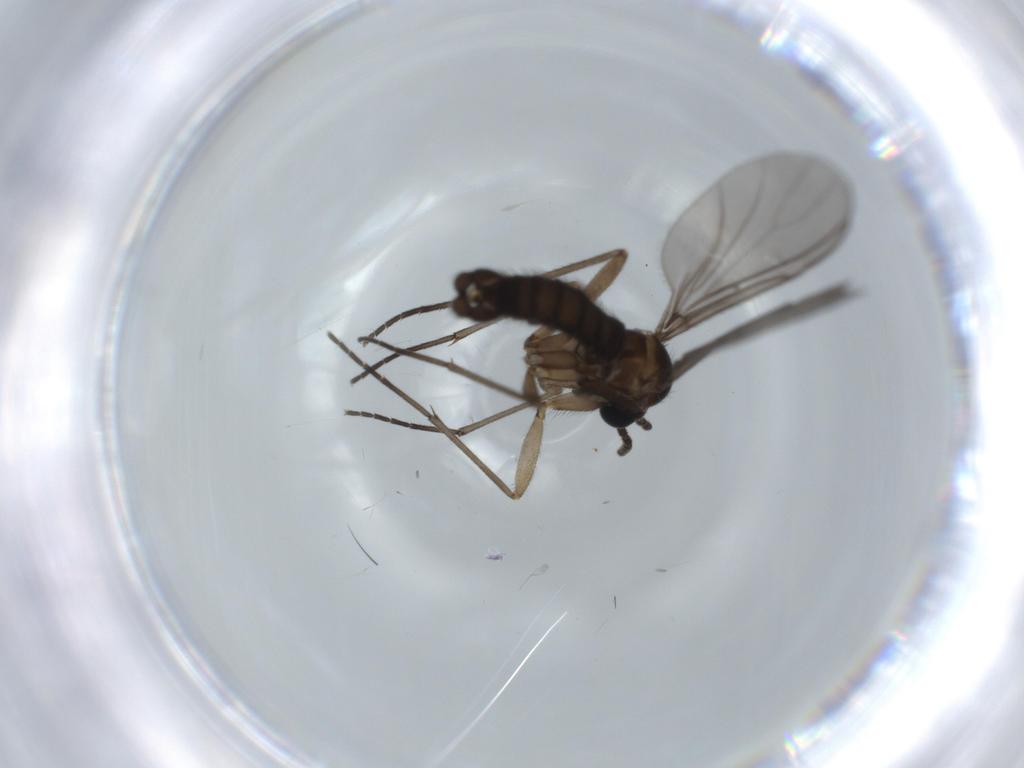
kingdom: Animalia
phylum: Arthropoda
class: Insecta
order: Diptera
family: Sciaridae
